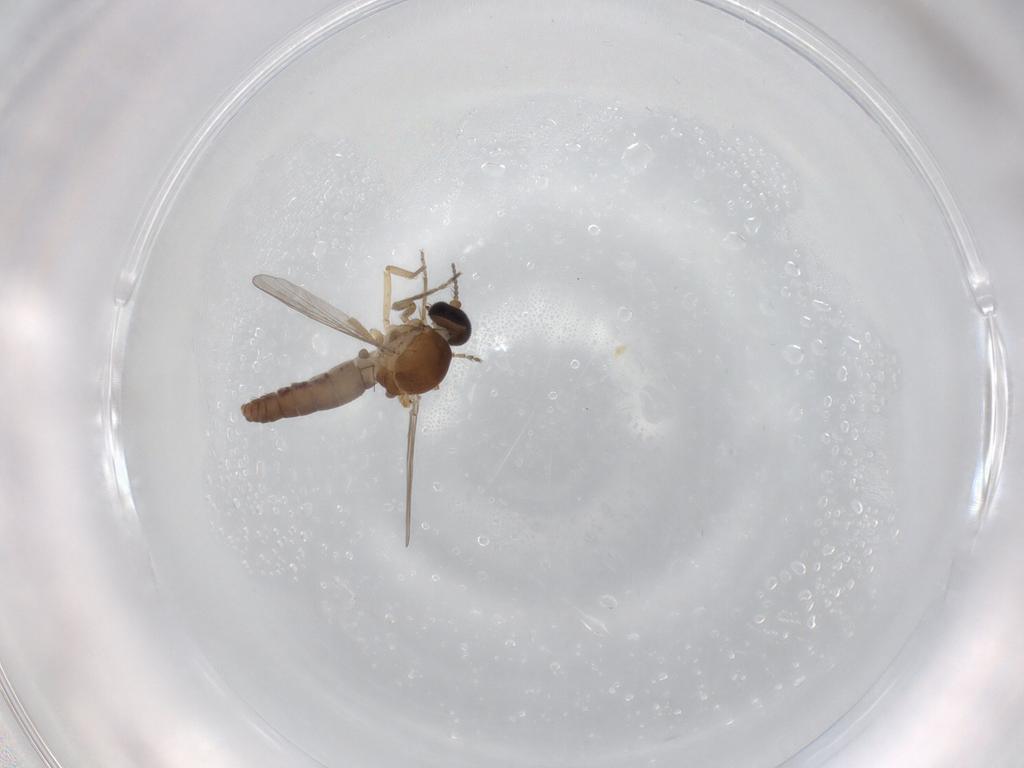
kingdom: Animalia
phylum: Arthropoda
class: Insecta
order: Diptera
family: Ceratopogonidae
